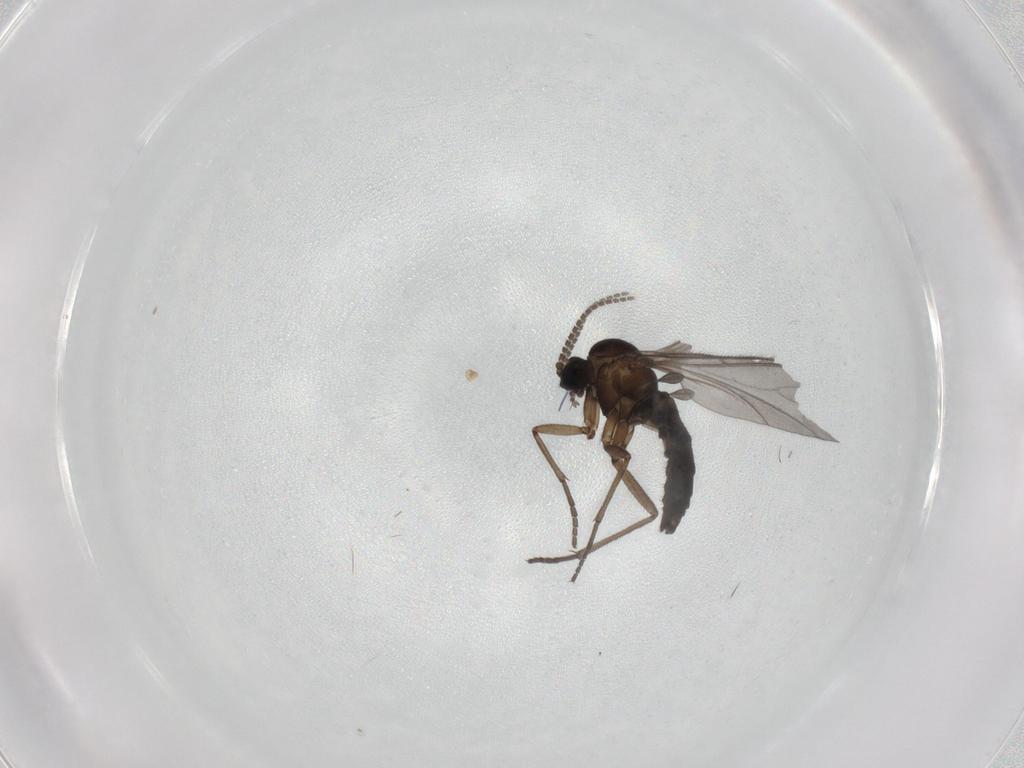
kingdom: Animalia
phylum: Arthropoda
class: Insecta
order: Diptera
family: Sciaridae
